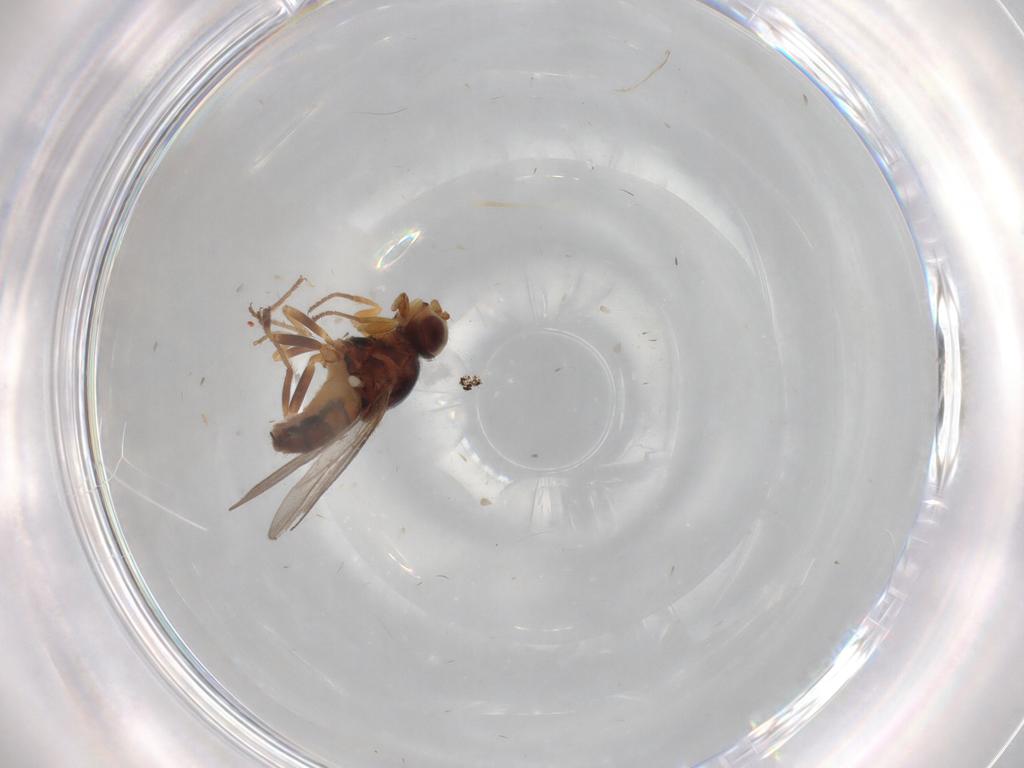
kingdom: Animalia
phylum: Arthropoda
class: Insecta
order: Diptera
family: Chloropidae
